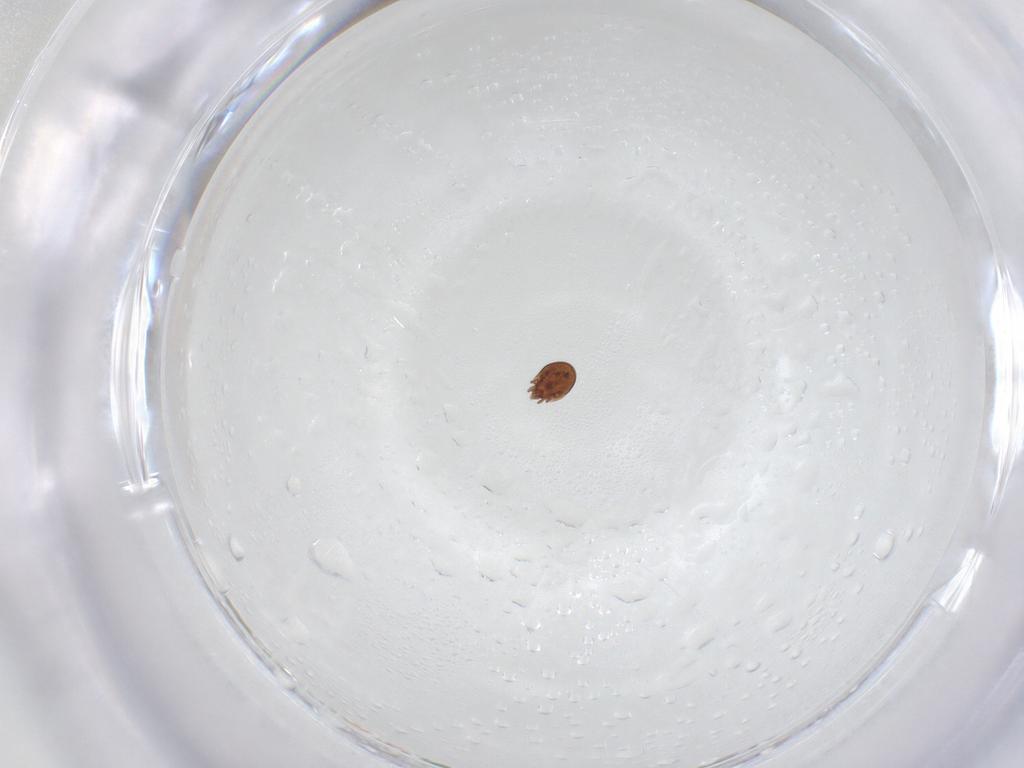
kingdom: Animalia
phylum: Arthropoda
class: Arachnida
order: Sarcoptiformes
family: Scheloribatidae
